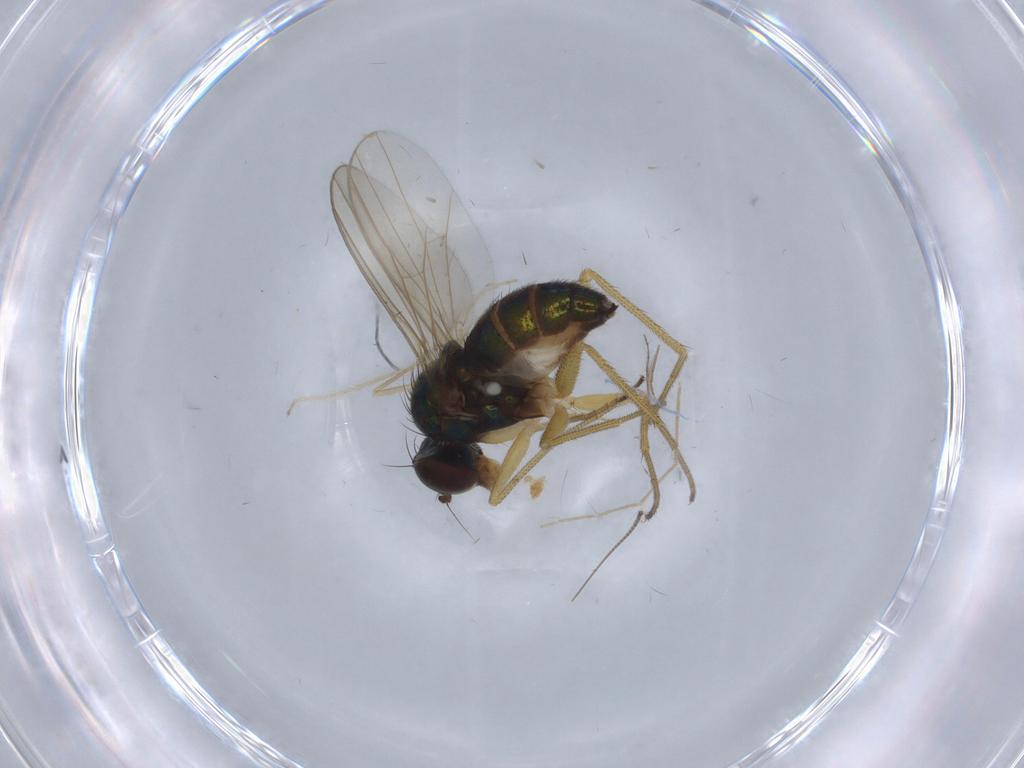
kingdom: Animalia
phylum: Arthropoda
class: Insecta
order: Diptera
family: Dolichopodidae
